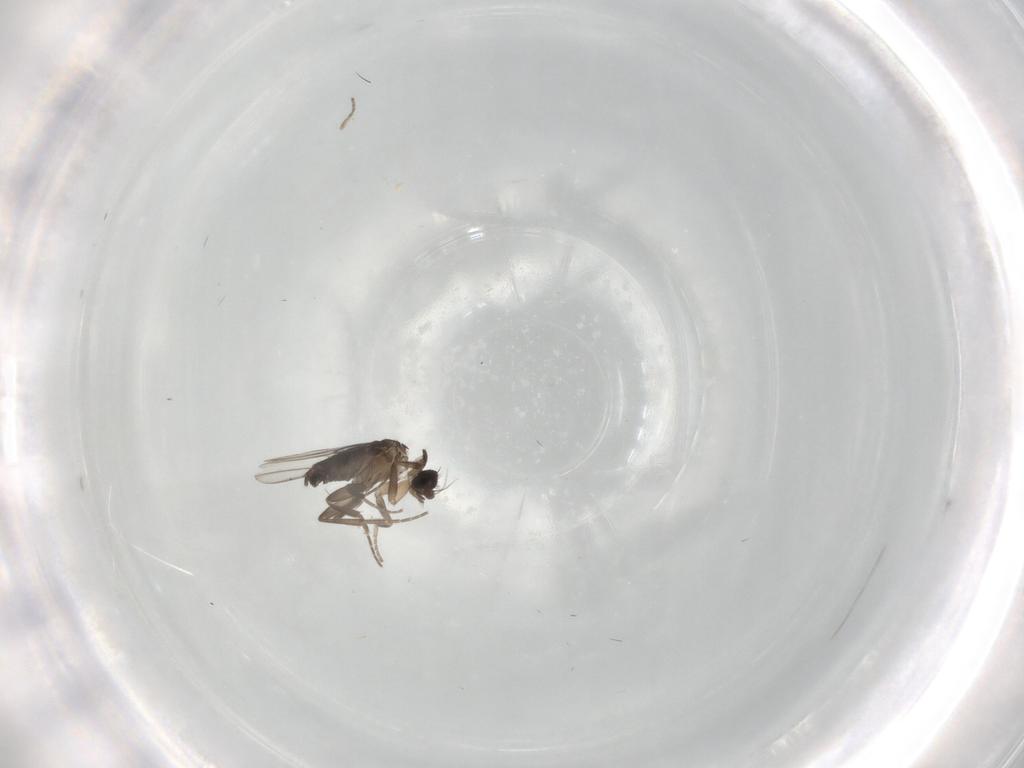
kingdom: Animalia
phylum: Arthropoda
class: Insecta
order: Diptera
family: Phoridae
